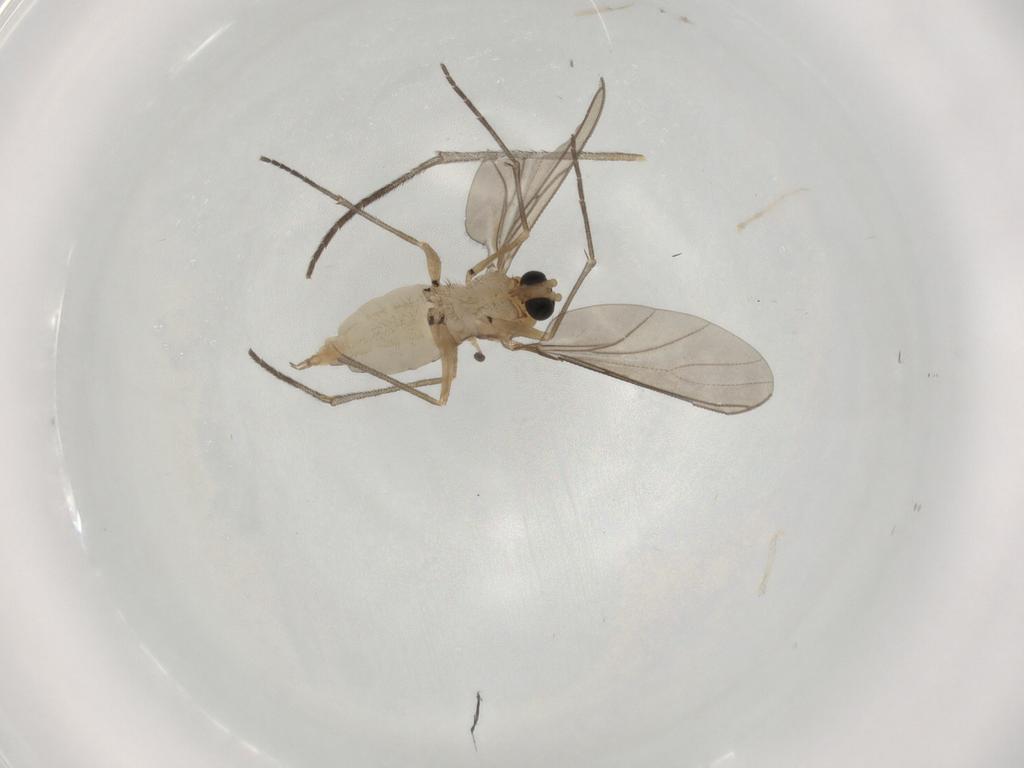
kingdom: Animalia
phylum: Arthropoda
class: Insecta
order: Diptera
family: Sciaridae
